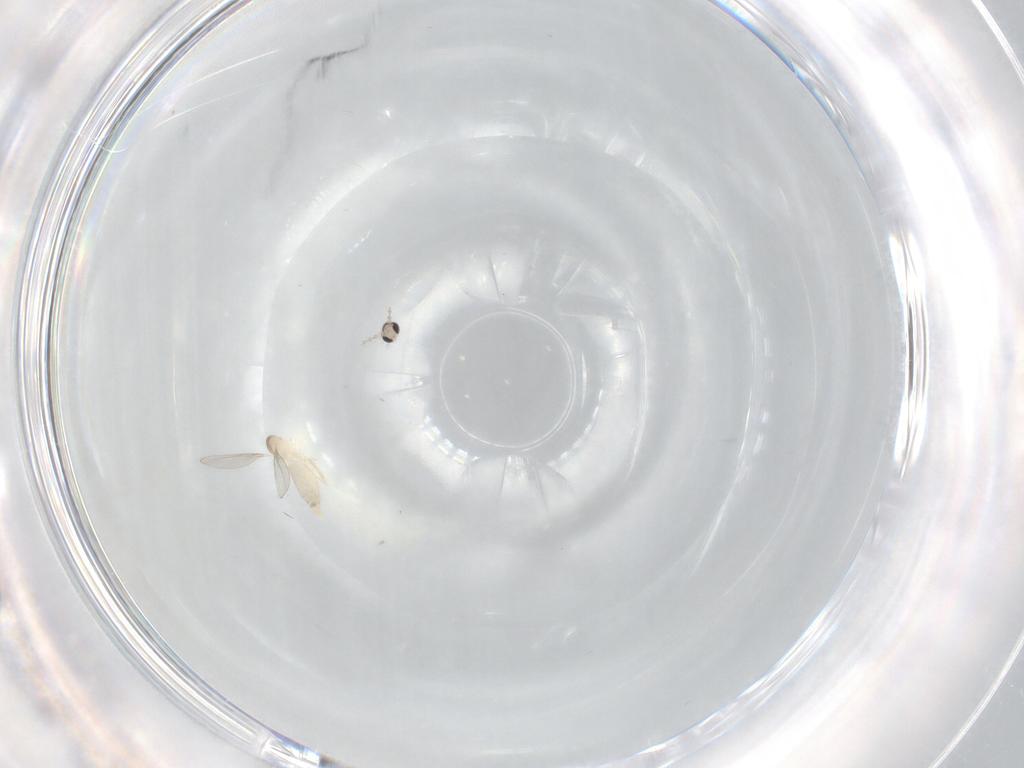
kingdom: Animalia
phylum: Arthropoda
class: Insecta
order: Diptera
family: Cecidomyiidae
